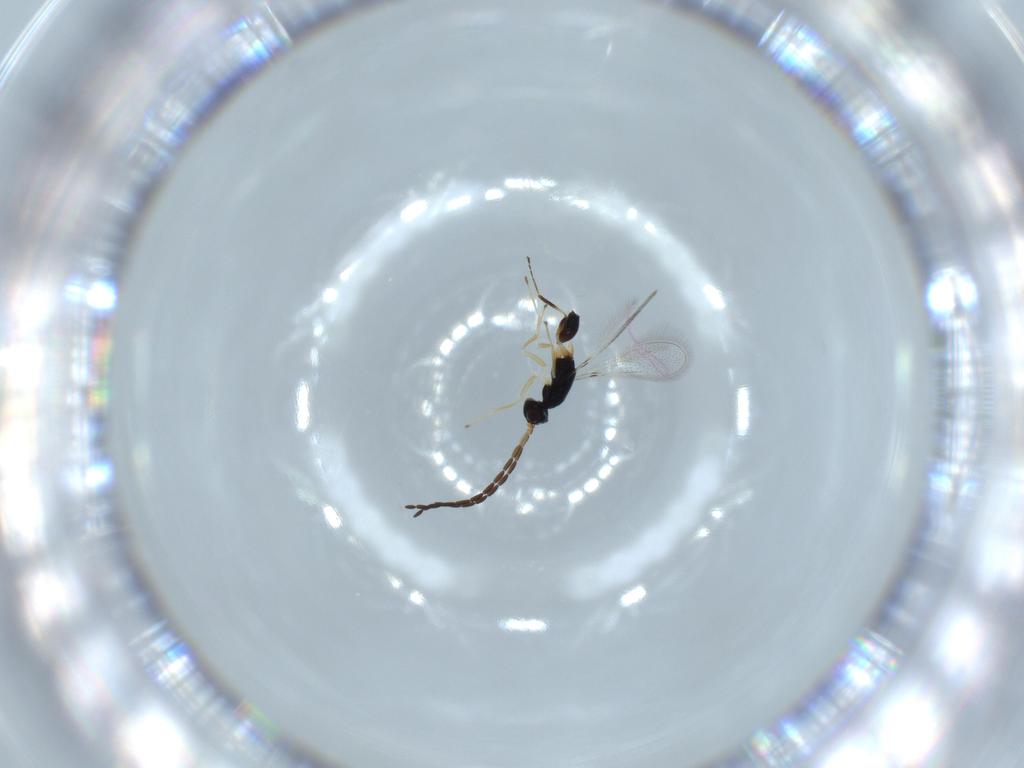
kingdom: Animalia
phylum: Arthropoda
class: Insecta
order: Hymenoptera
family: Mymaridae
